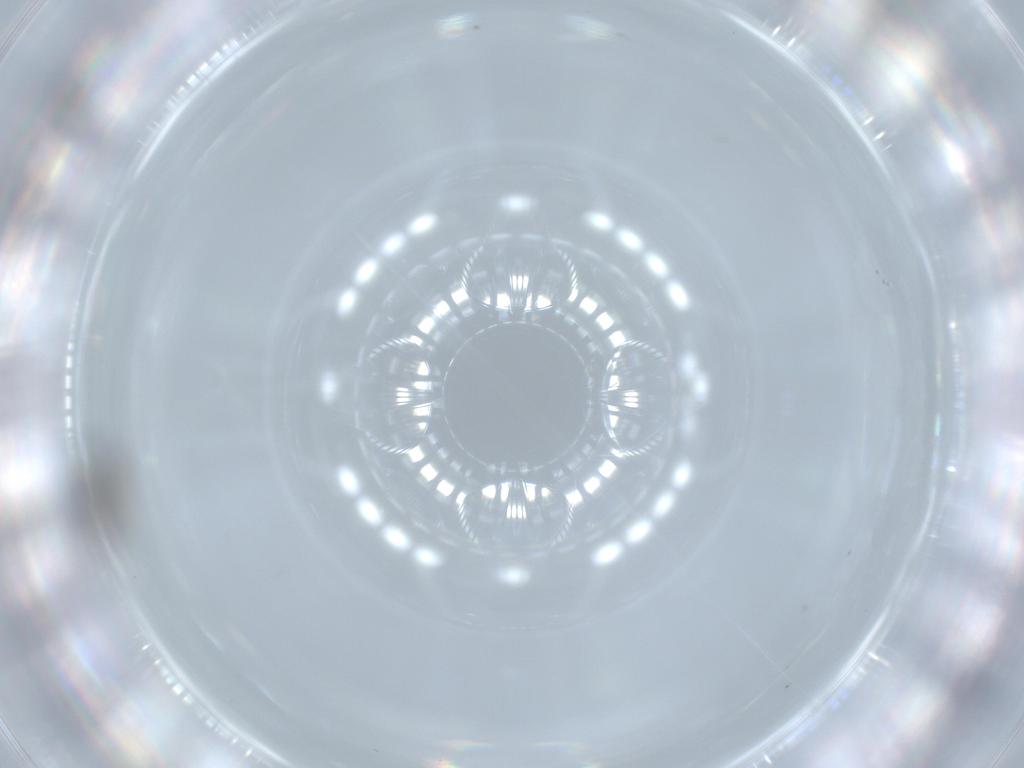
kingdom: Animalia
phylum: Arthropoda
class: Insecta
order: Hymenoptera
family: Platygastridae
